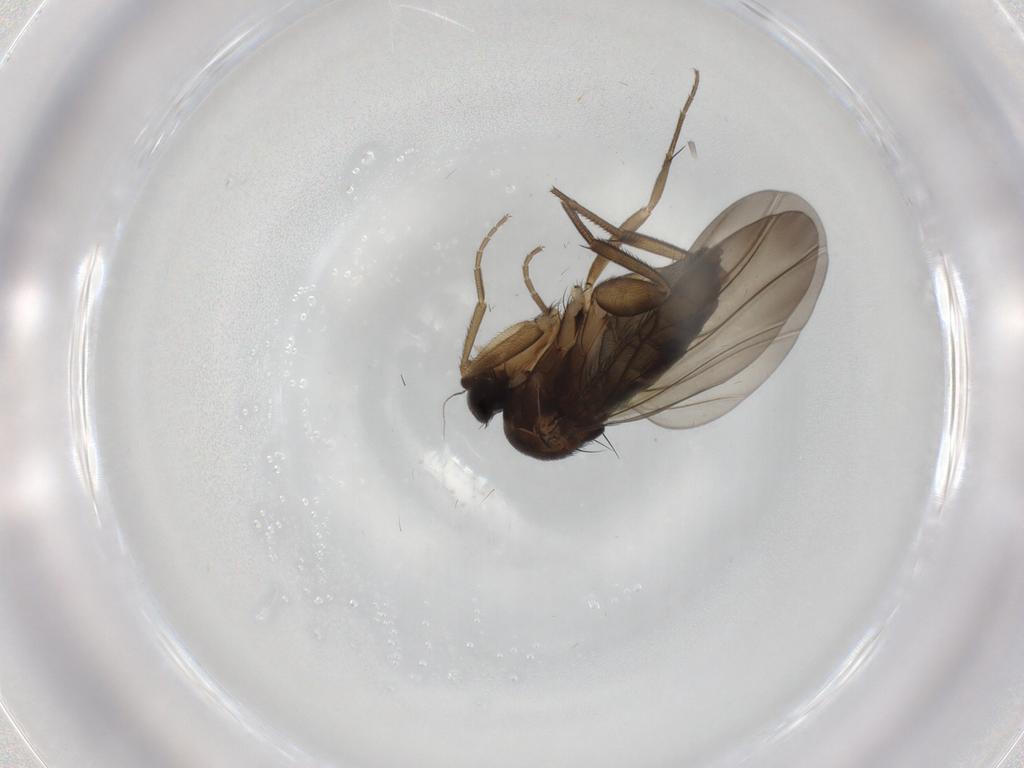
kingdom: Animalia
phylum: Arthropoda
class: Insecta
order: Diptera
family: Phoridae
